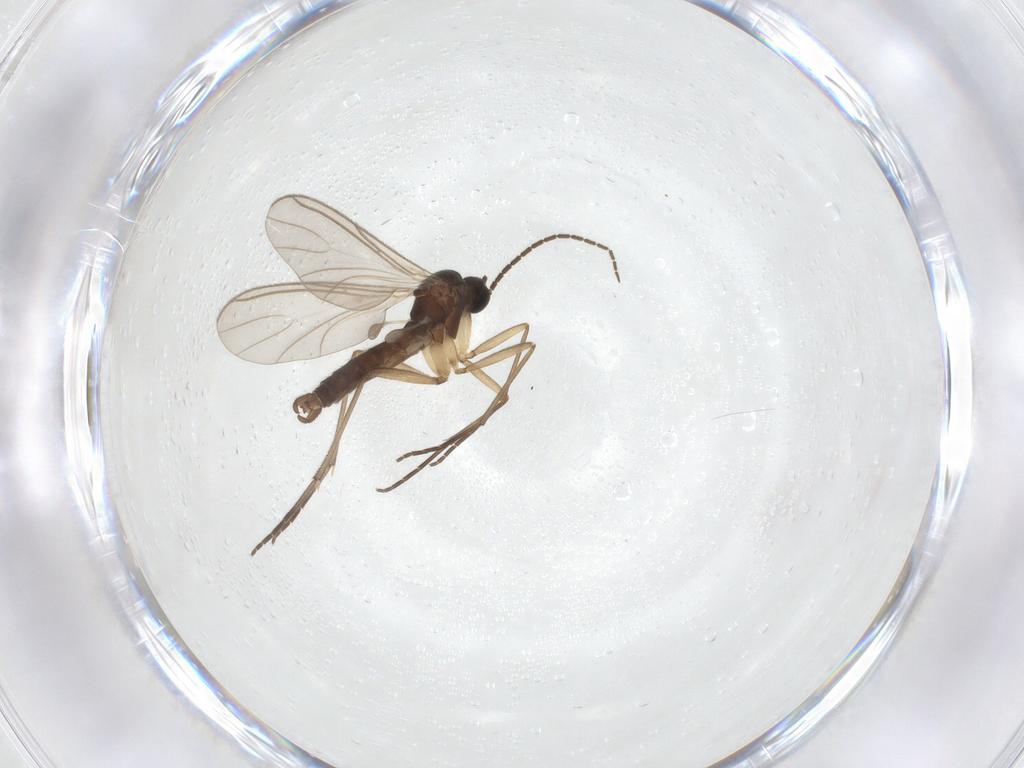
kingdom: Animalia
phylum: Arthropoda
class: Insecta
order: Diptera
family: Sciaridae
